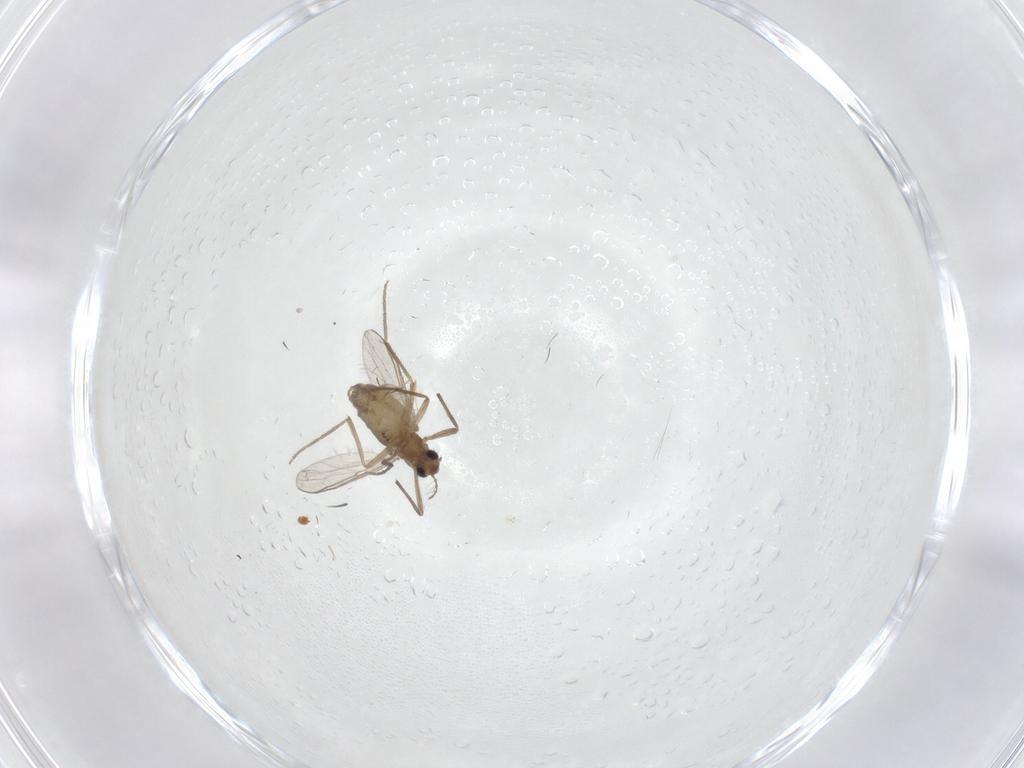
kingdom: Animalia
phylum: Arthropoda
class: Insecta
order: Diptera
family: Chironomidae
